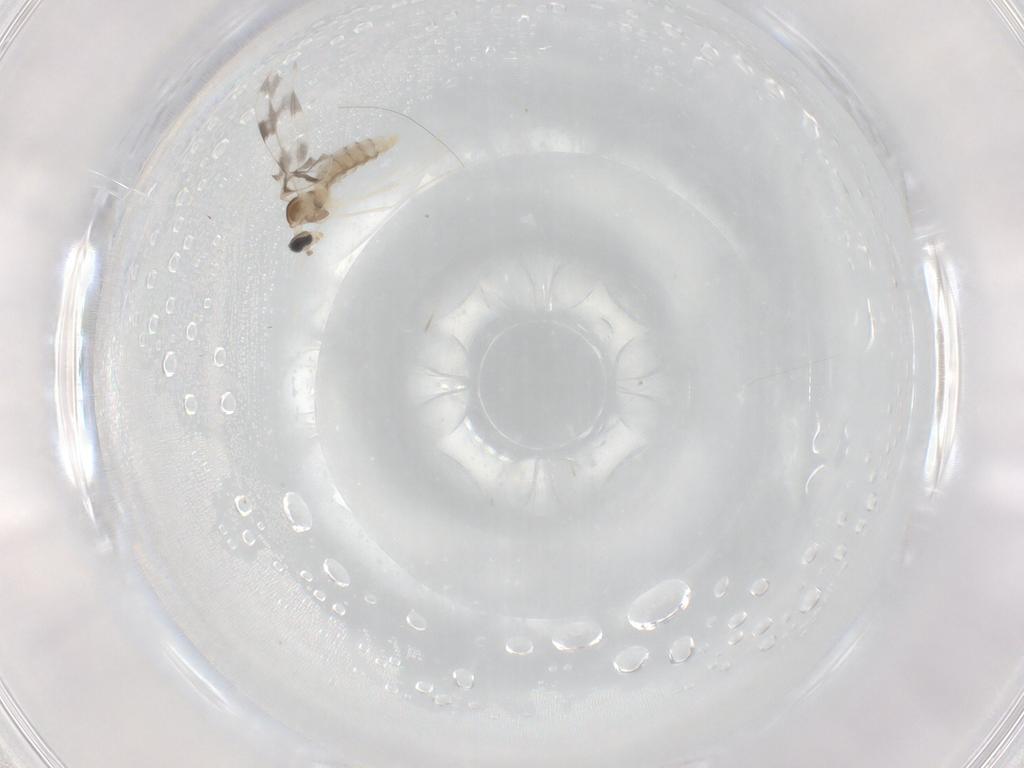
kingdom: Animalia
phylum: Arthropoda
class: Insecta
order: Diptera
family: Cecidomyiidae
